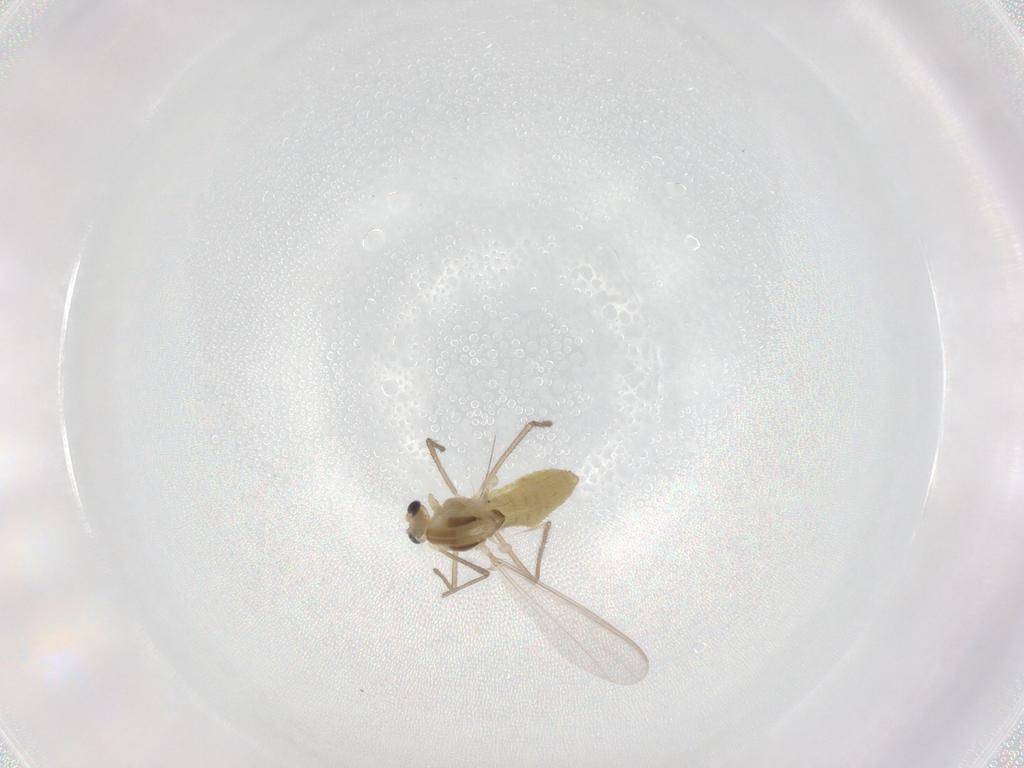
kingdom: Animalia
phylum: Arthropoda
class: Insecta
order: Diptera
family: Chironomidae
